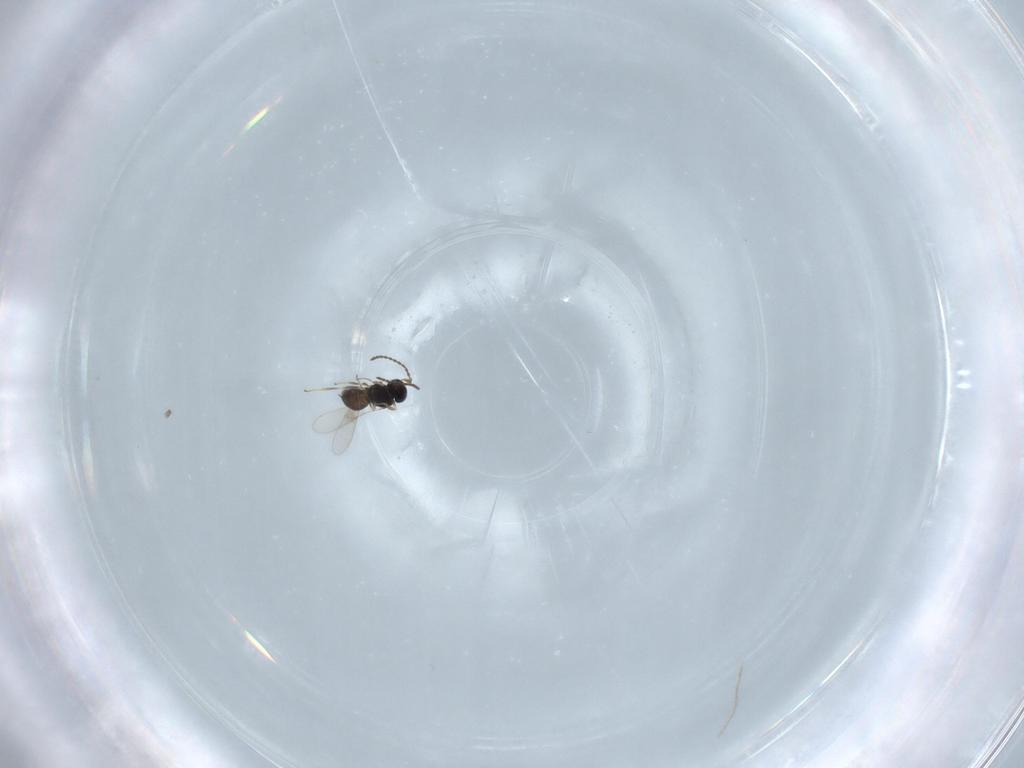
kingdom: Animalia
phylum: Arthropoda
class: Insecta
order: Hymenoptera
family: Scelionidae
